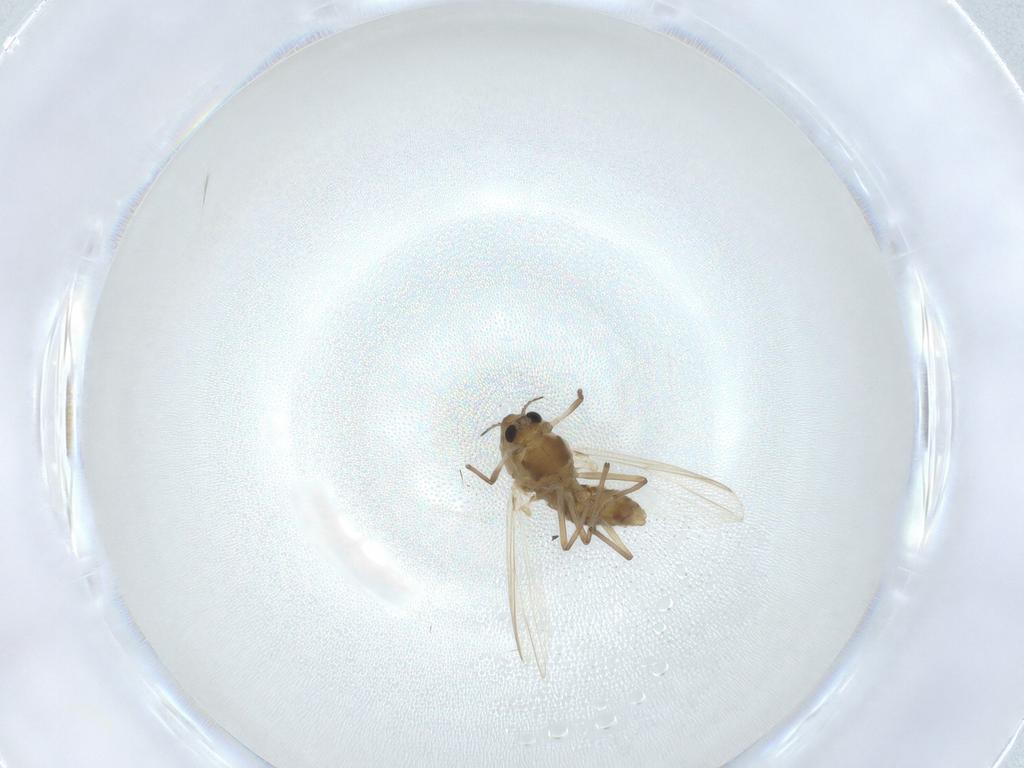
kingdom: Animalia
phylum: Arthropoda
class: Insecta
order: Diptera
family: Chironomidae
